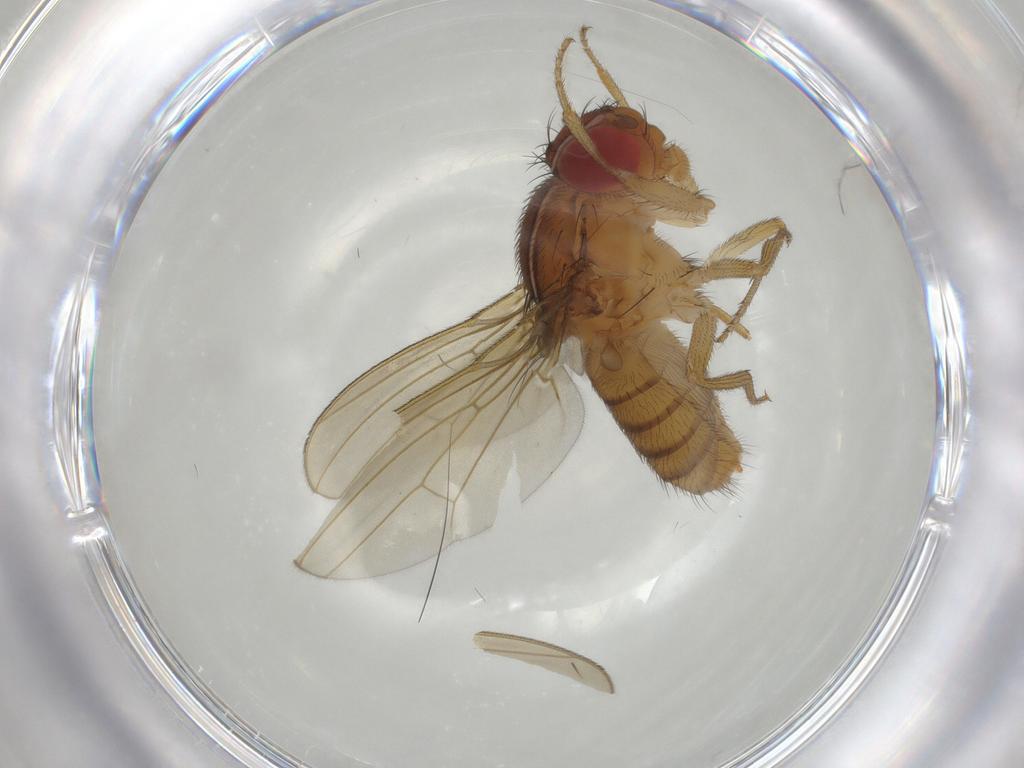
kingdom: Animalia
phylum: Arthropoda
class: Insecta
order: Diptera
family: Drosophilidae
